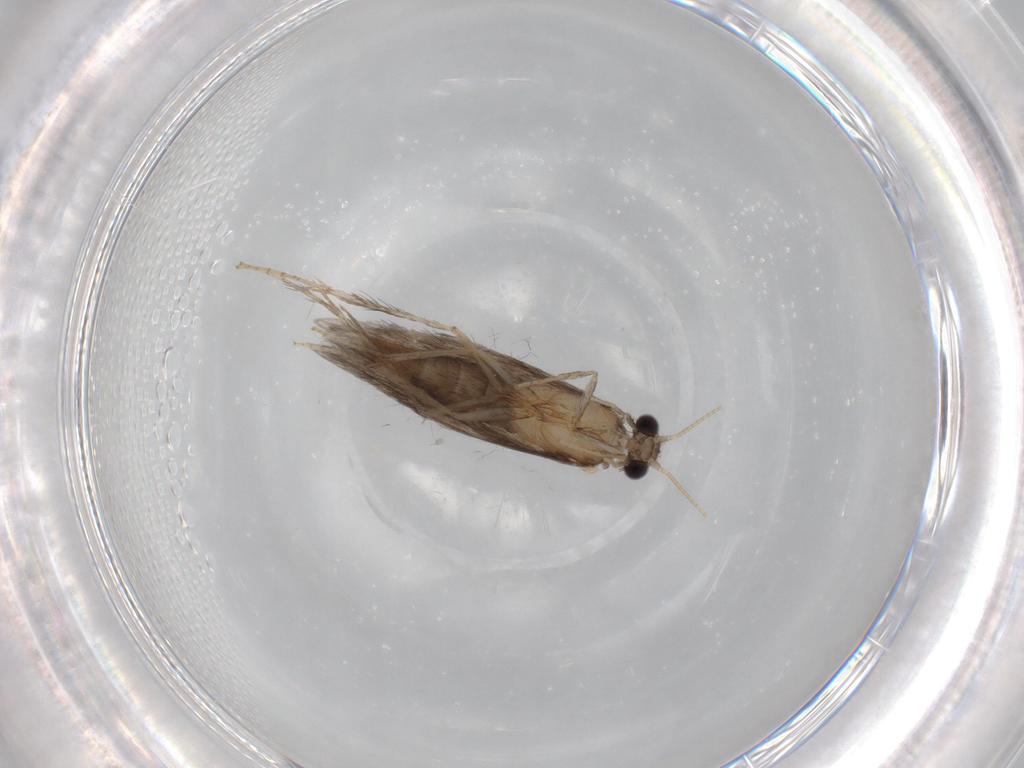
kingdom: Animalia
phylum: Arthropoda
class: Insecta
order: Trichoptera
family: Hydroptilidae
